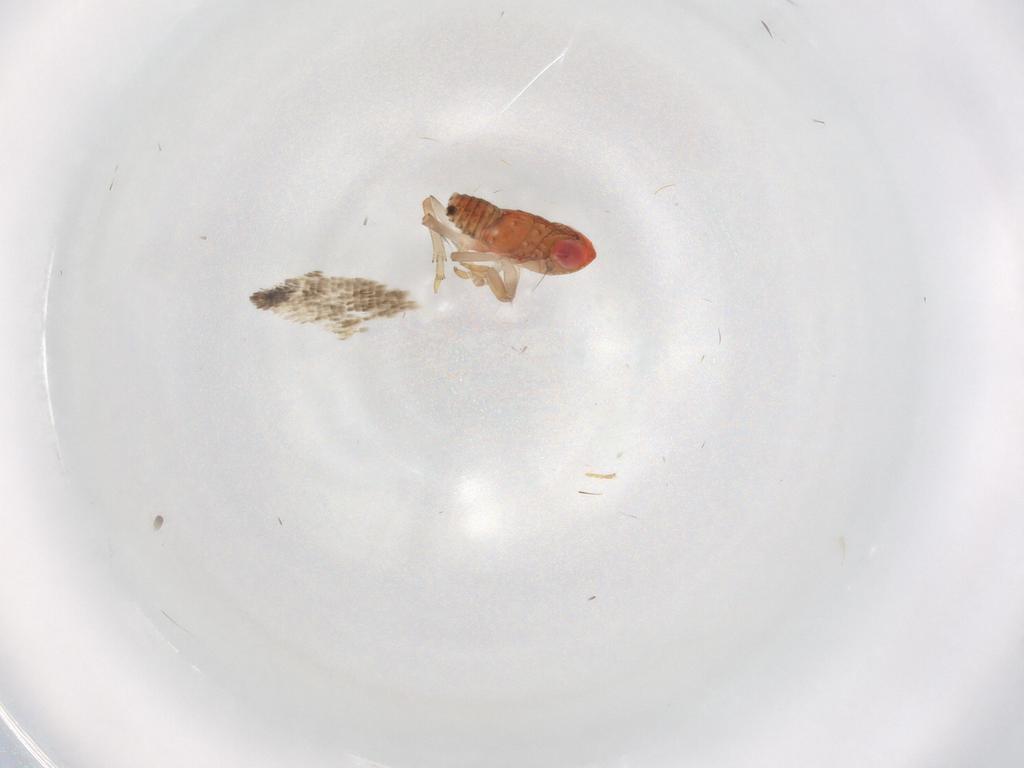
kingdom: Animalia
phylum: Arthropoda
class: Insecta
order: Hemiptera
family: Issidae
